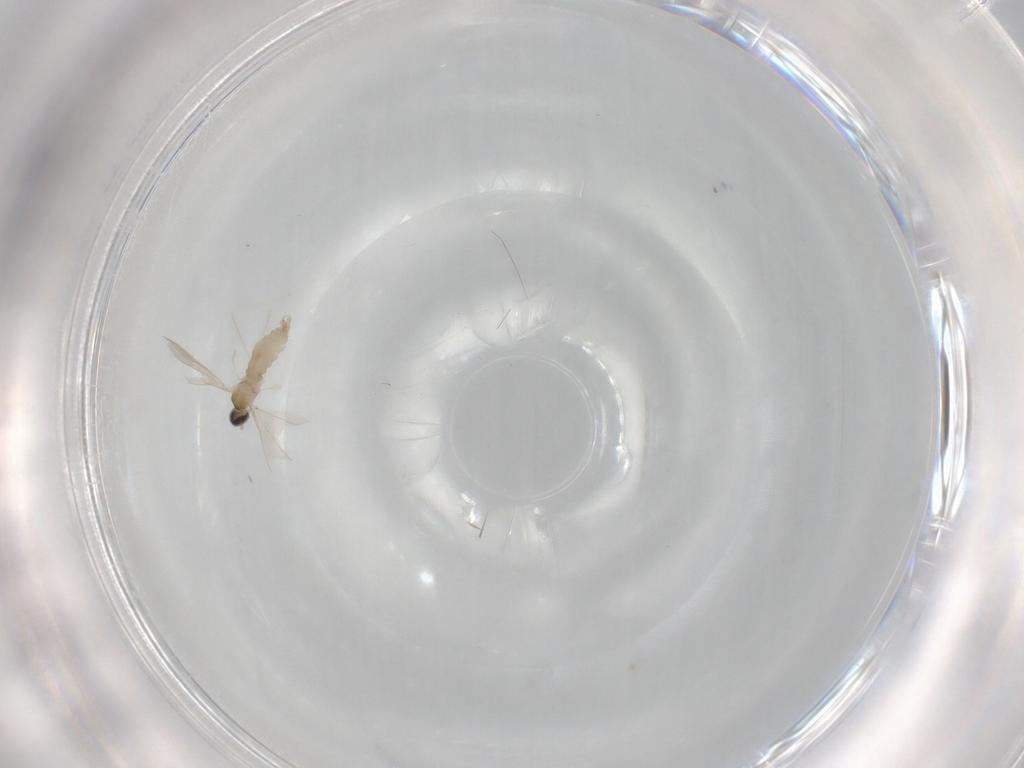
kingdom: Animalia
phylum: Arthropoda
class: Insecta
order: Diptera
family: Cecidomyiidae
